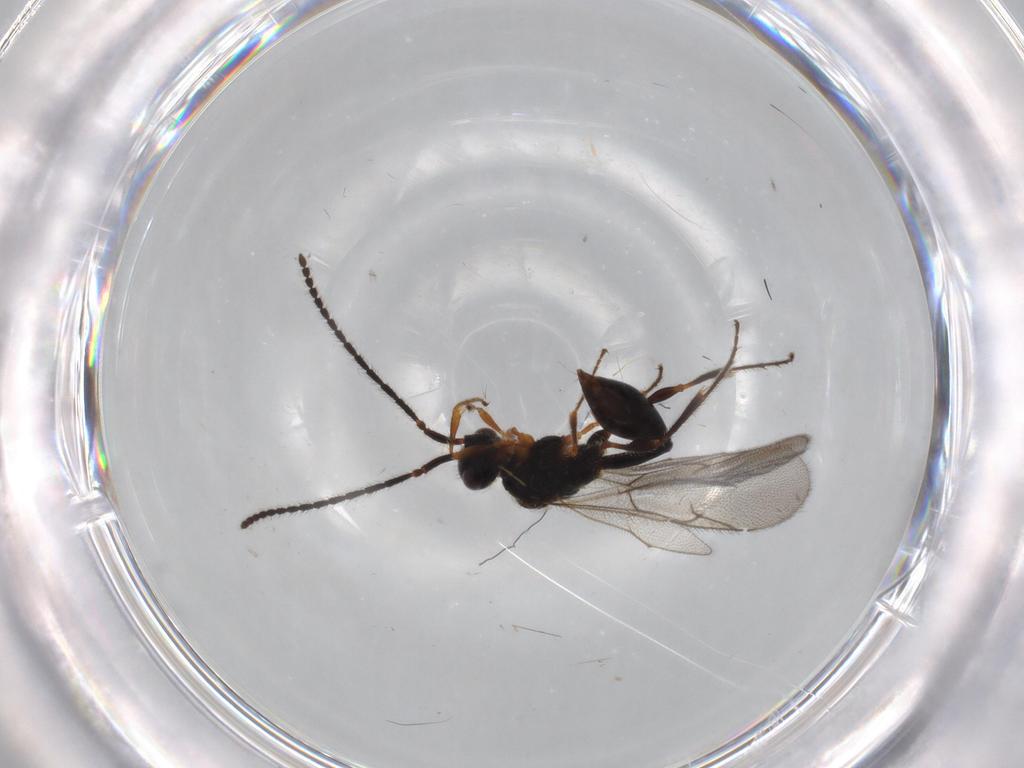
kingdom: Animalia
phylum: Arthropoda
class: Insecta
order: Hymenoptera
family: Diapriidae
